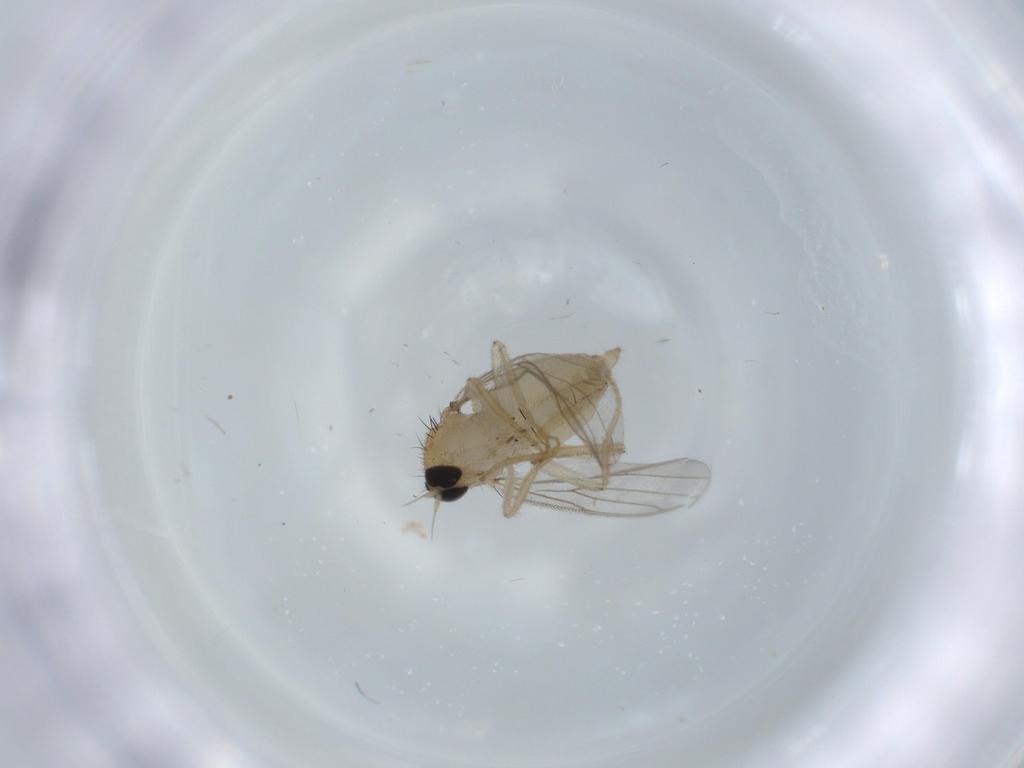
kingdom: Animalia
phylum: Arthropoda
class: Insecta
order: Diptera
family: Hybotidae
